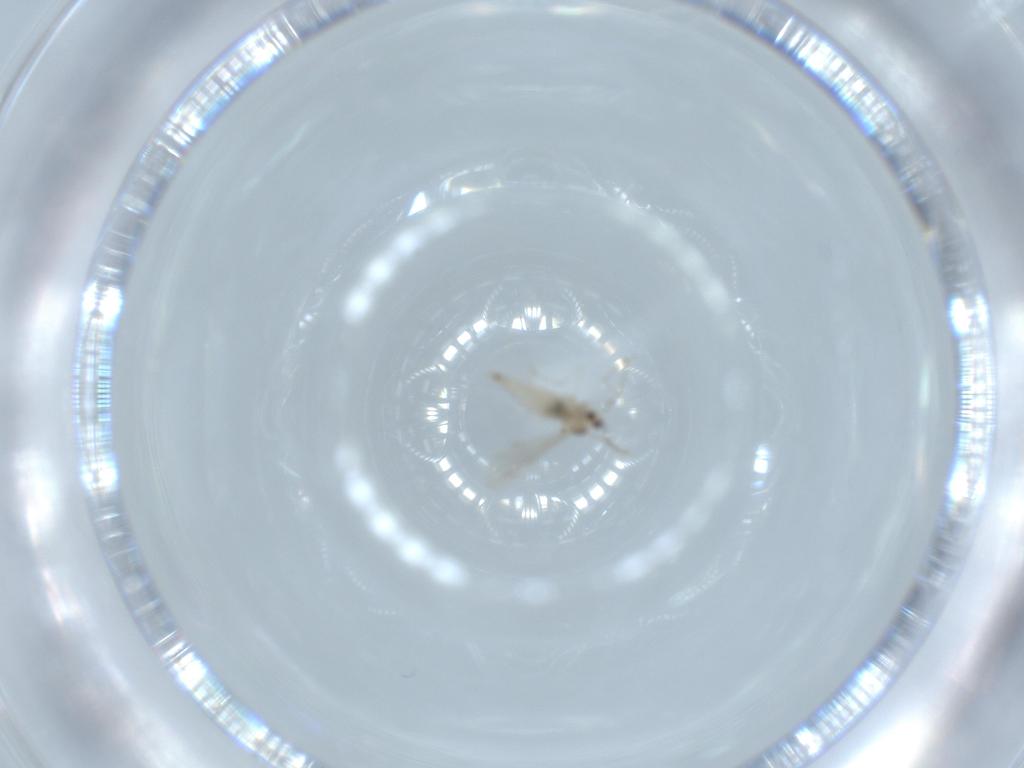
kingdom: Animalia
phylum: Arthropoda
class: Insecta
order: Diptera
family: Cecidomyiidae
